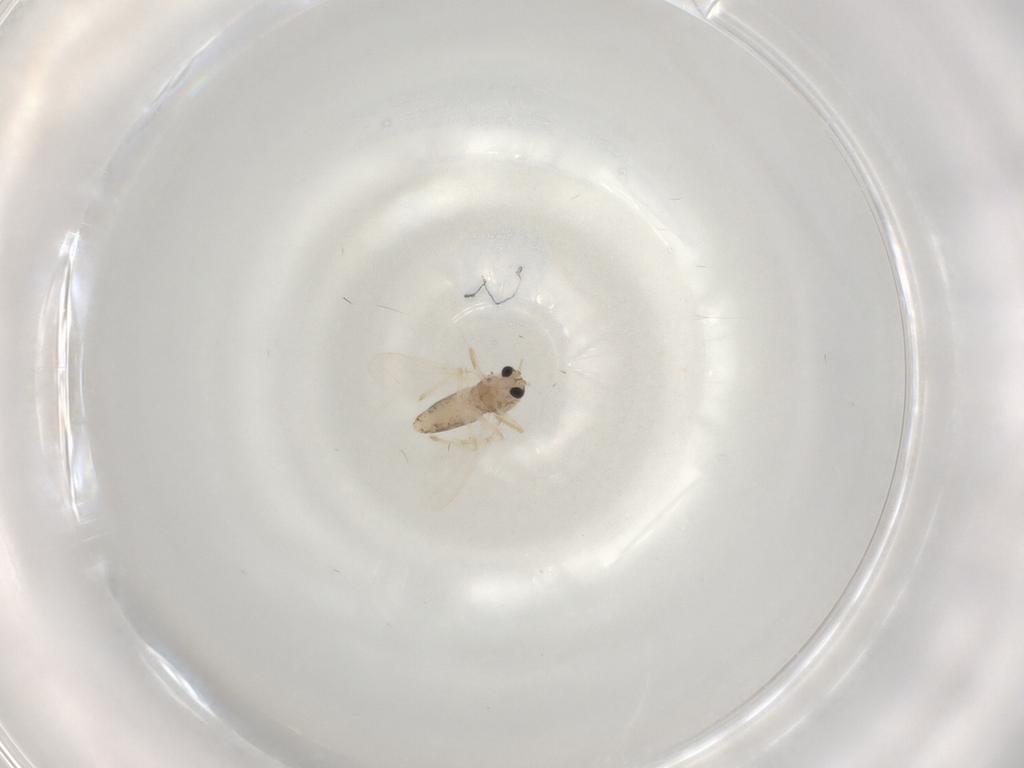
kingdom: Animalia
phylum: Arthropoda
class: Insecta
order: Diptera
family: Chironomidae
